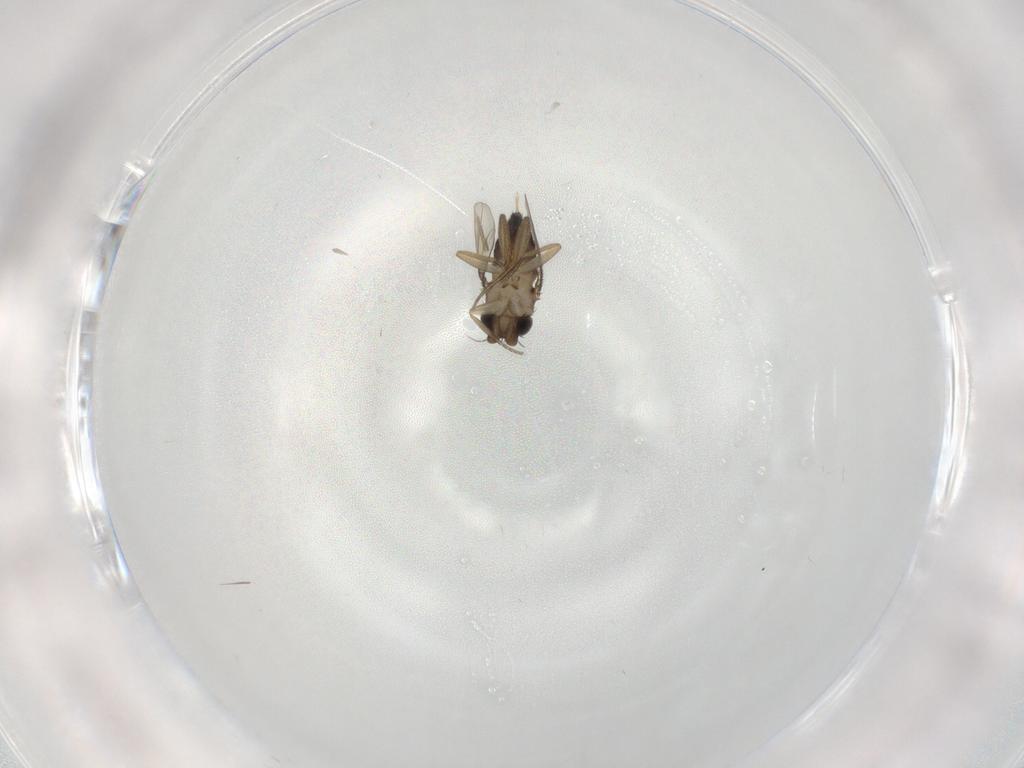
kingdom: Animalia
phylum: Arthropoda
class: Insecta
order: Diptera
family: Phoridae
